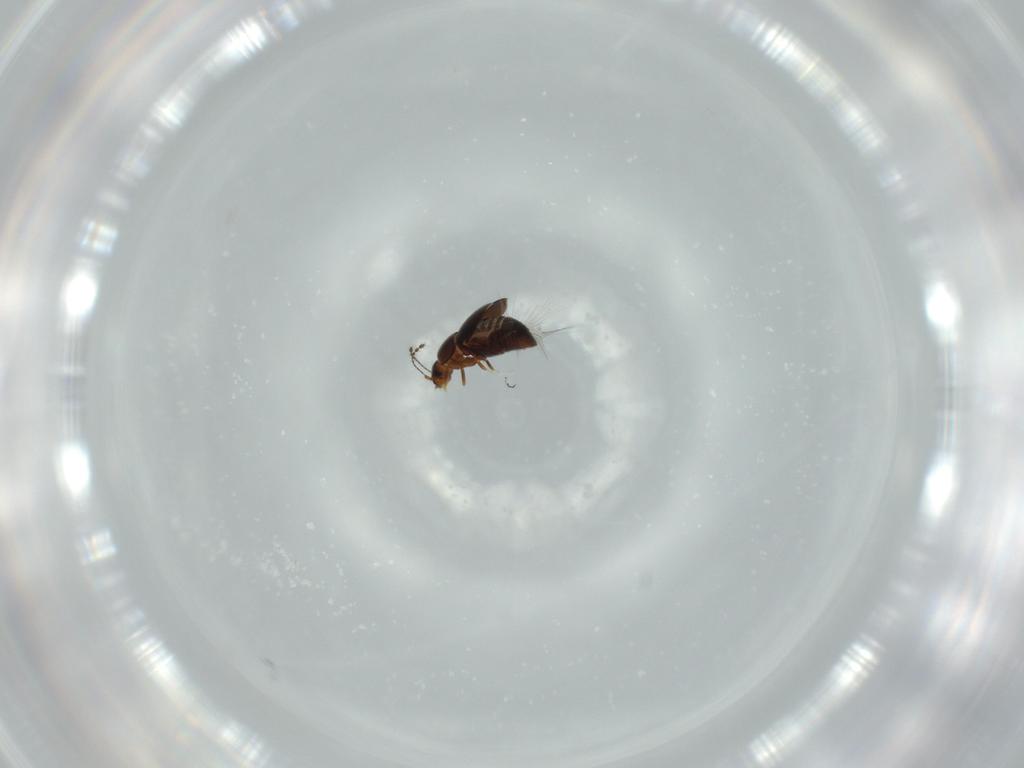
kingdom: Animalia
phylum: Arthropoda
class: Insecta
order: Coleoptera
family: Ptiliidae
